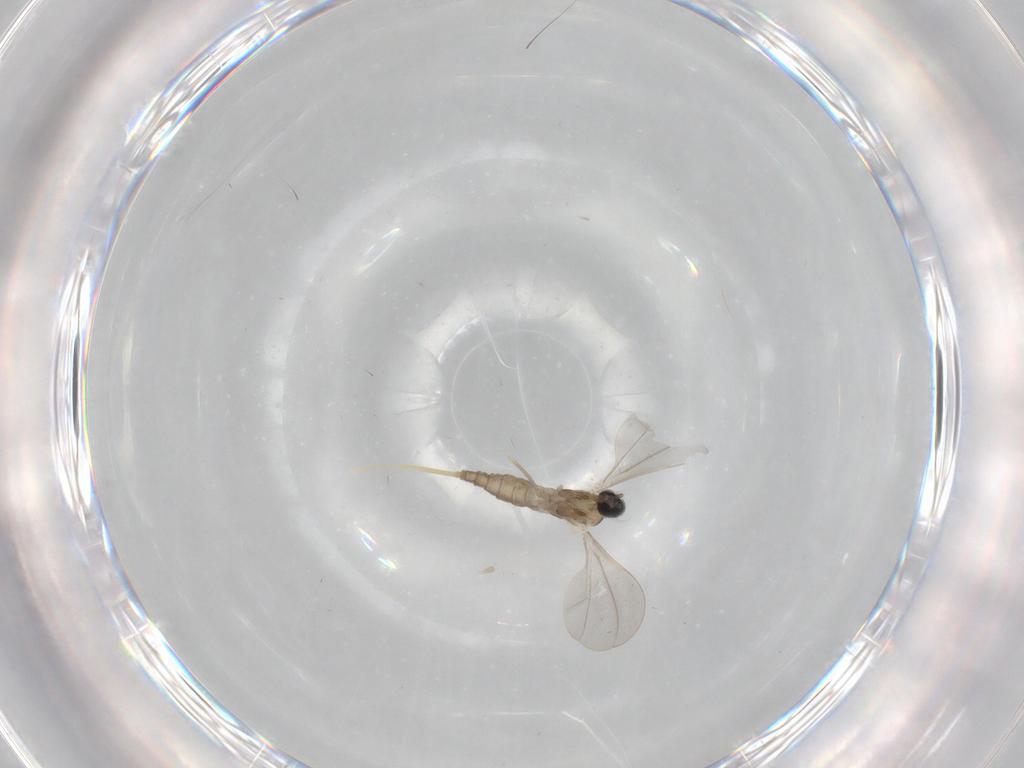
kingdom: Animalia
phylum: Arthropoda
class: Insecta
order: Diptera
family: Cecidomyiidae
